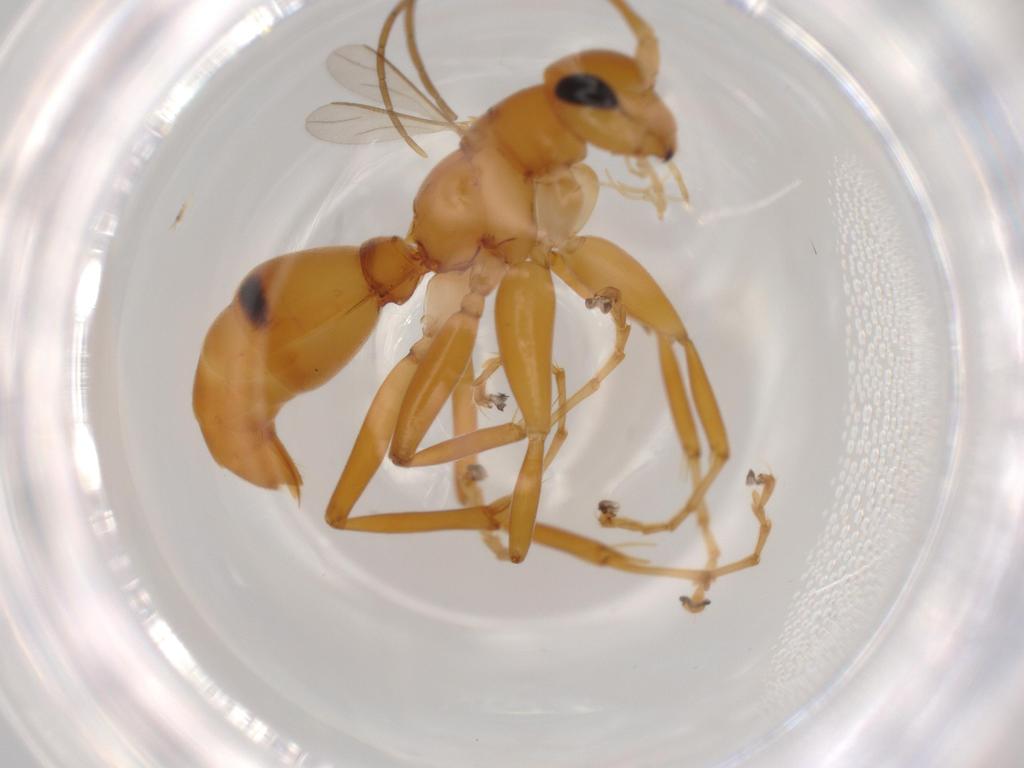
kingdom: Animalia
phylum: Arthropoda
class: Insecta
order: Hymenoptera
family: Rhopalosomatidae
